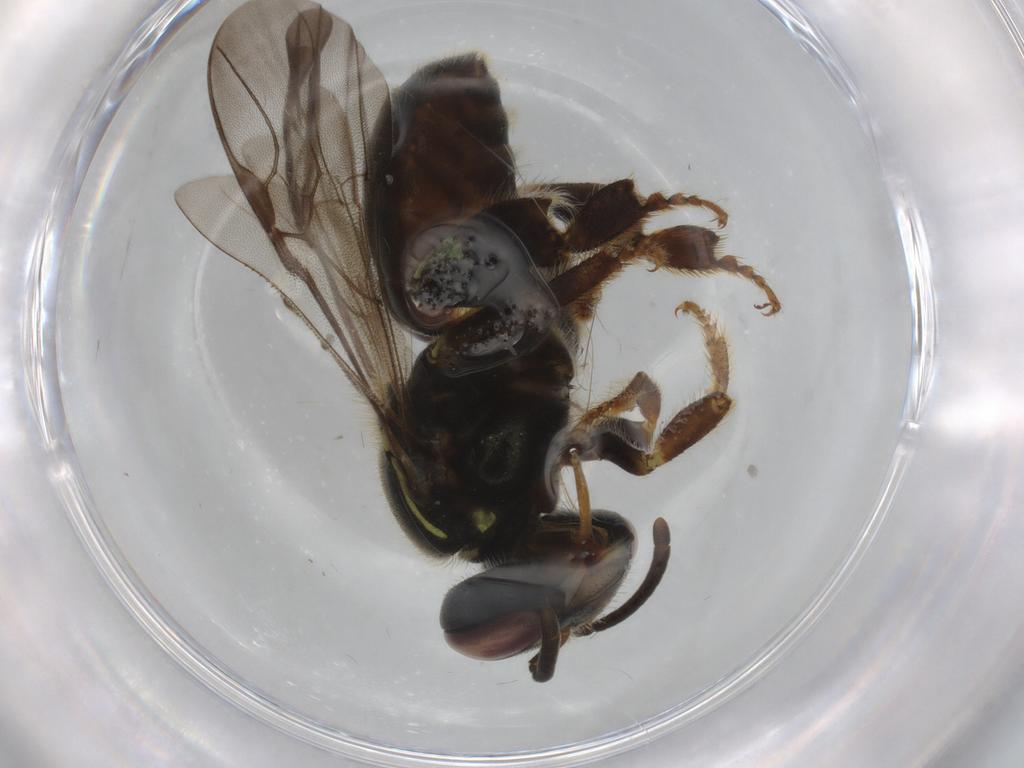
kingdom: Animalia
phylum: Arthropoda
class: Insecta
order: Hymenoptera
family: Apidae
